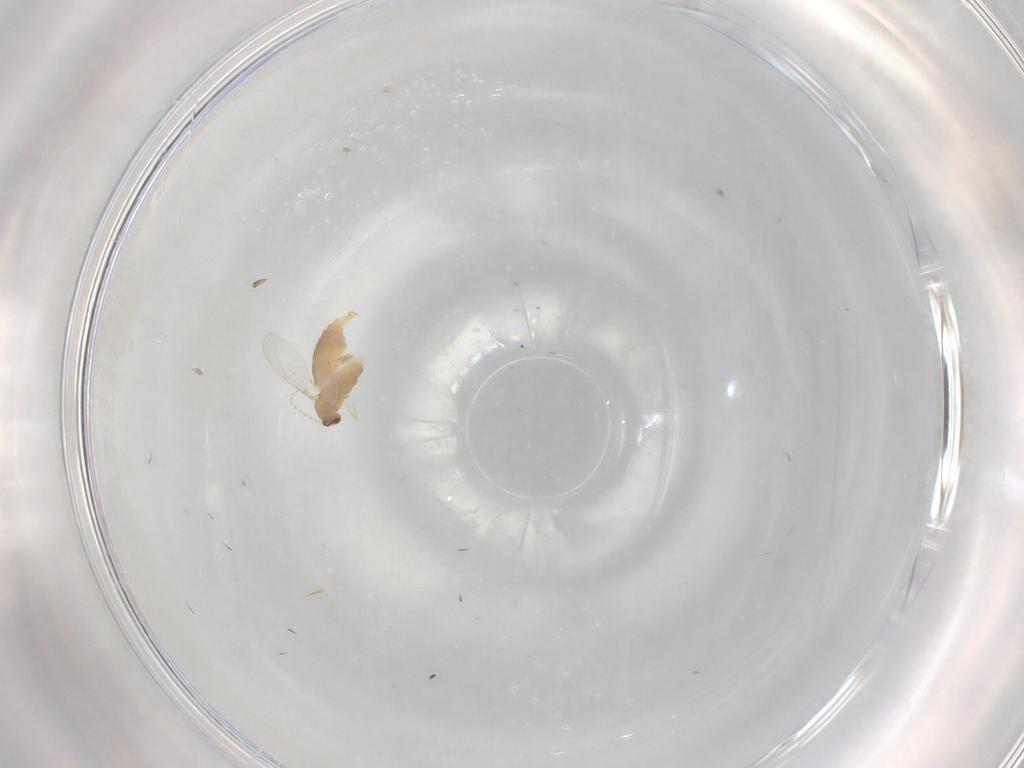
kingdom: Animalia
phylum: Arthropoda
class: Insecta
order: Diptera
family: Cecidomyiidae
